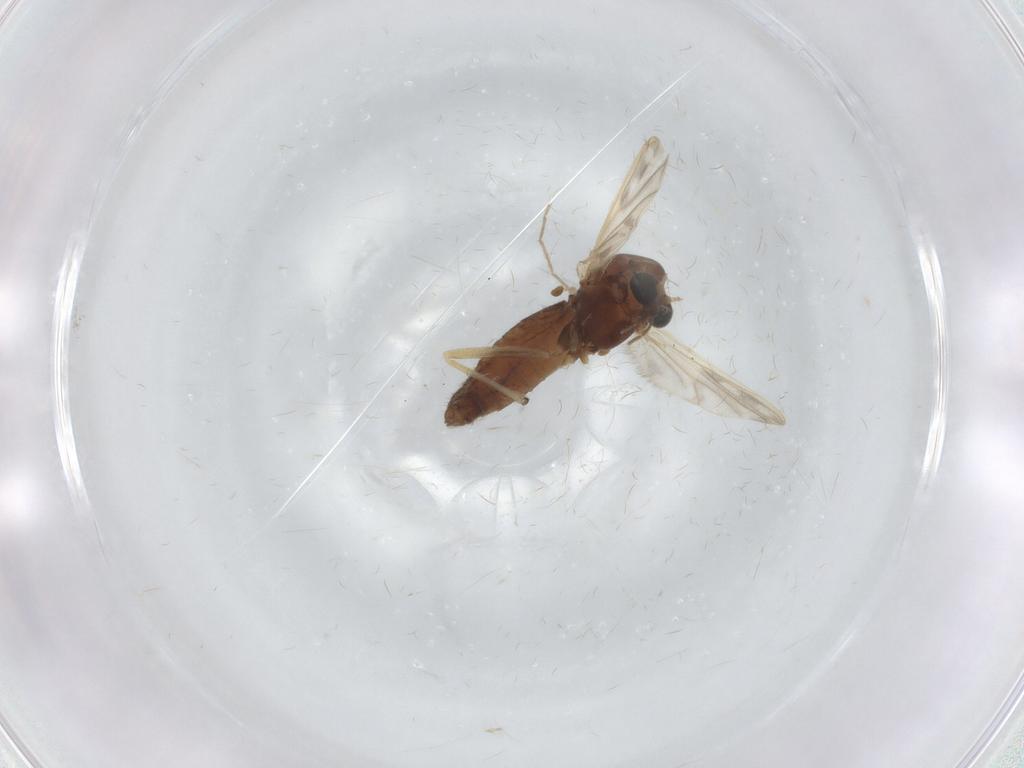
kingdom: Animalia
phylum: Arthropoda
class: Insecta
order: Diptera
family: Chironomidae
